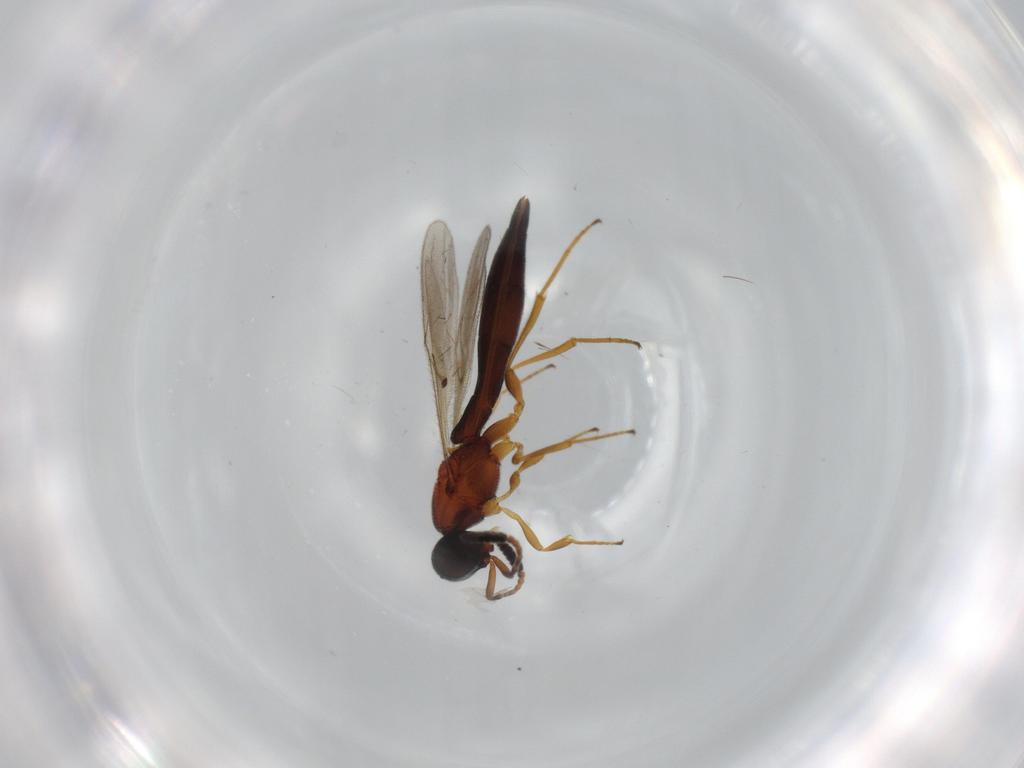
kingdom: Animalia
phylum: Arthropoda
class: Insecta
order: Hymenoptera
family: Scelionidae
